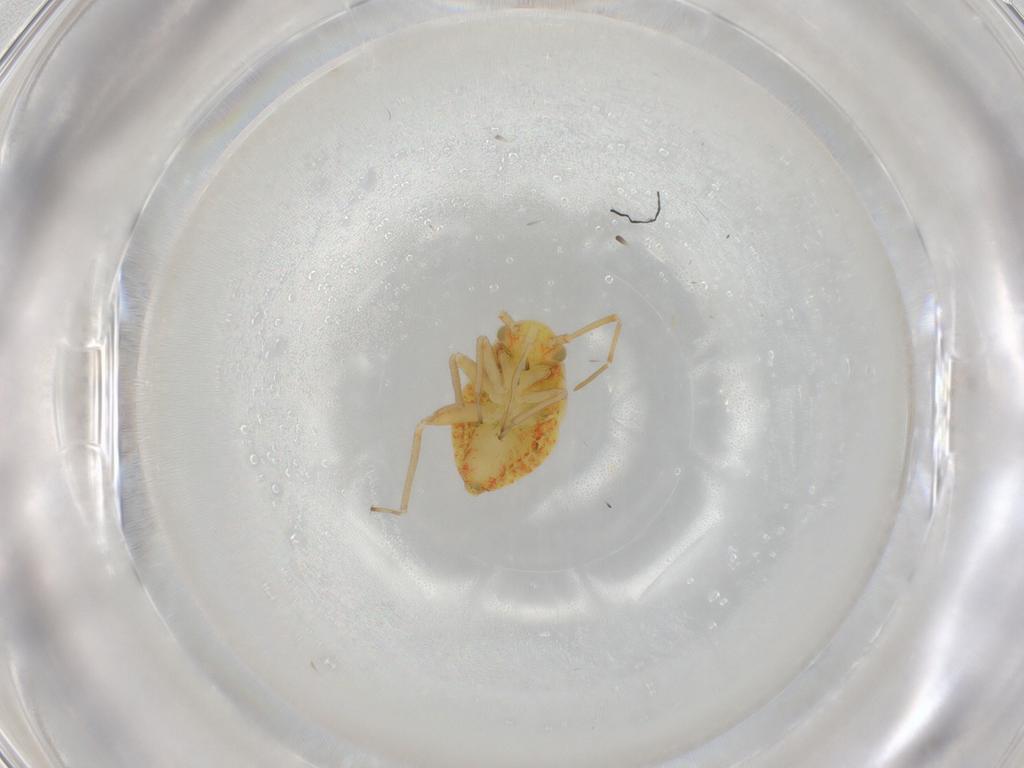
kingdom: Animalia
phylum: Arthropoda
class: Insecta
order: Hemiptera
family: Miridae
